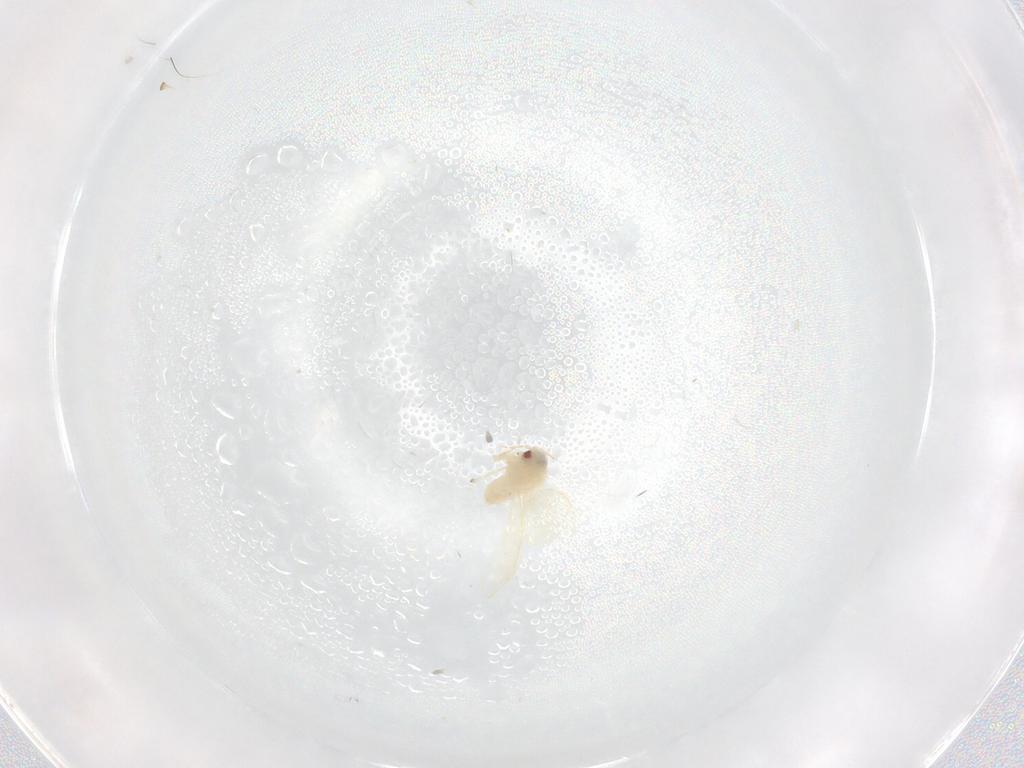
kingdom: Animalia
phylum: Arthropoda
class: Insecta
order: Hemiptera
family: Aleyrodidae
